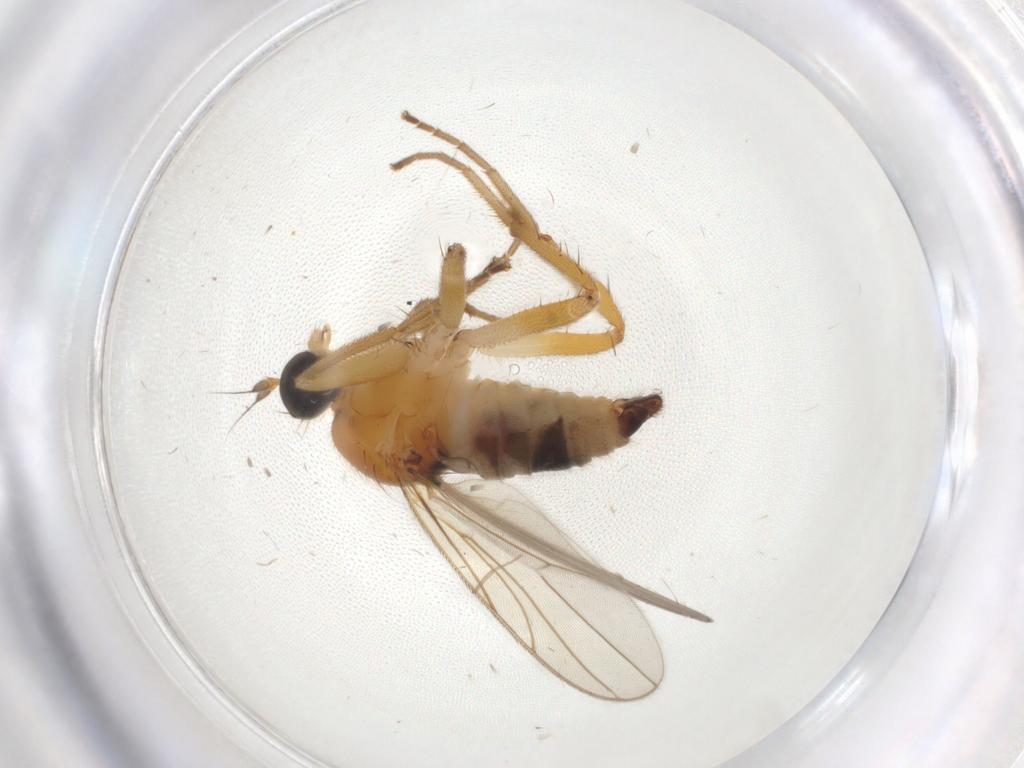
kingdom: Animalia
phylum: Arthropoda
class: Insecta
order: Diptera
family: Hybotidae
